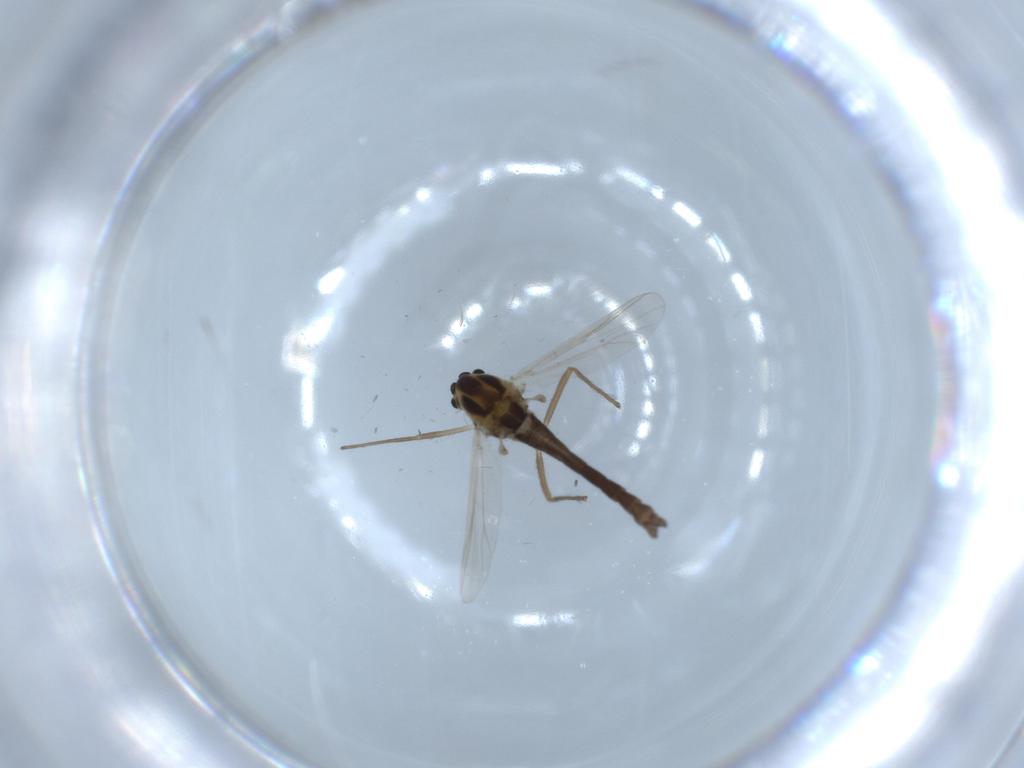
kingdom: Animalia
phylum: Arthropoda
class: Insecta
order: Diptera
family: Chironomidae
